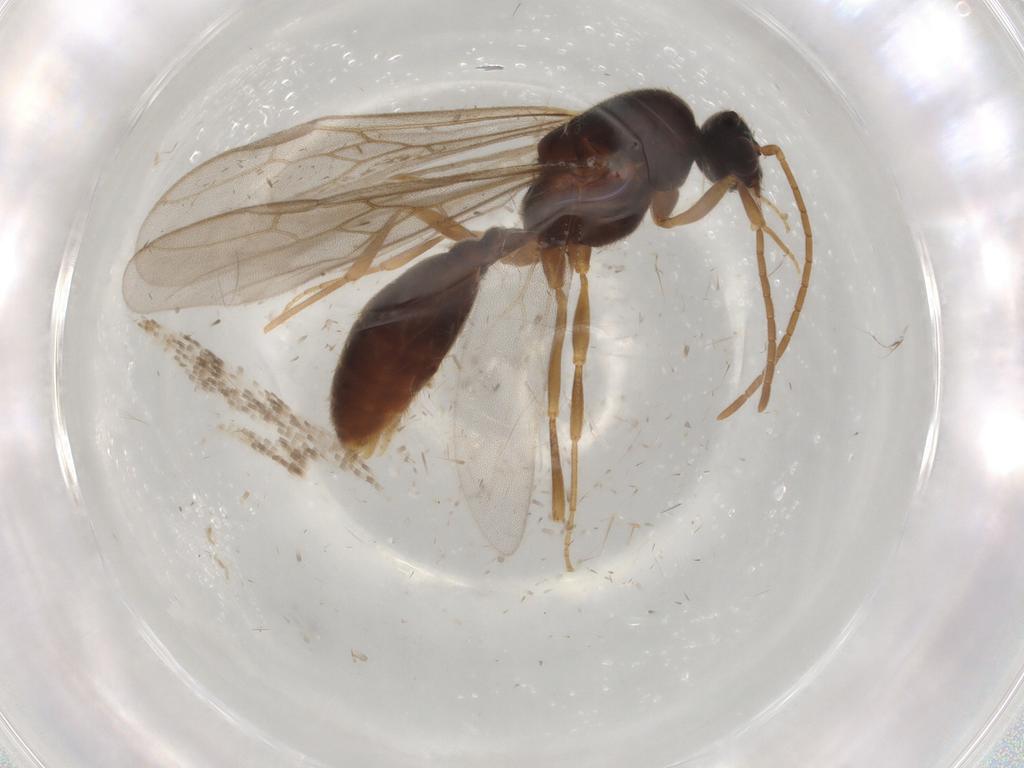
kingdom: Animalia
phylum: Arthropoda
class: Insecta
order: Hymenoptera
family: Formicidae
